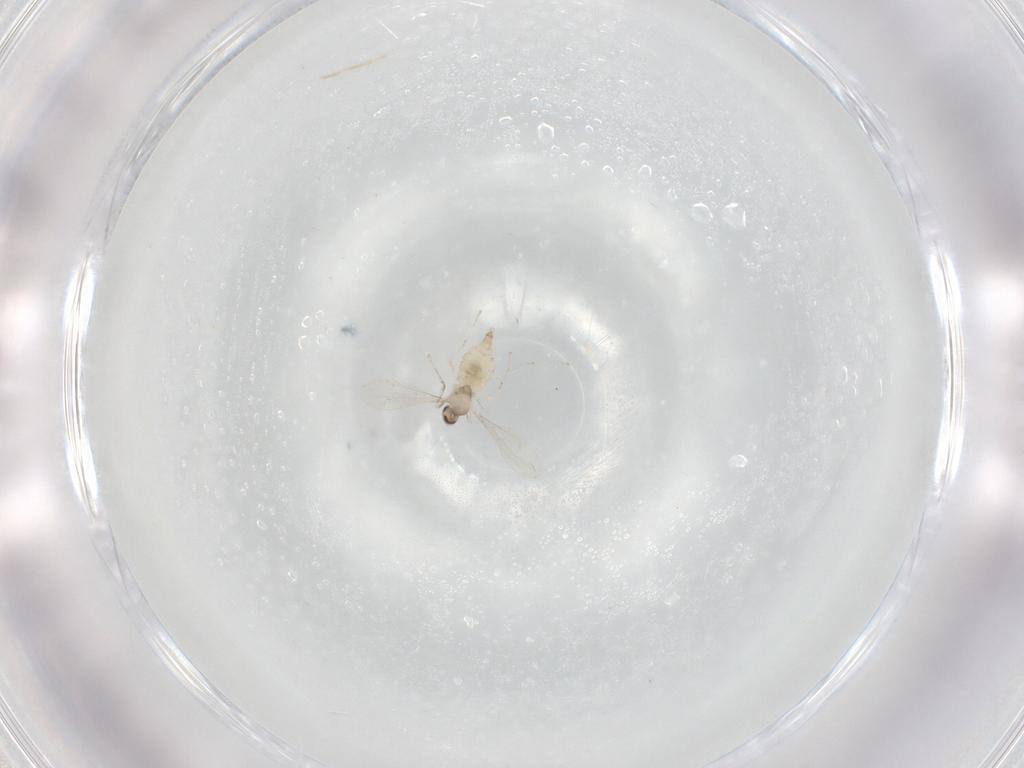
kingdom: Animalia
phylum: Arthropoda
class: Insecta
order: Diptera
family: Cecidomyiidae
